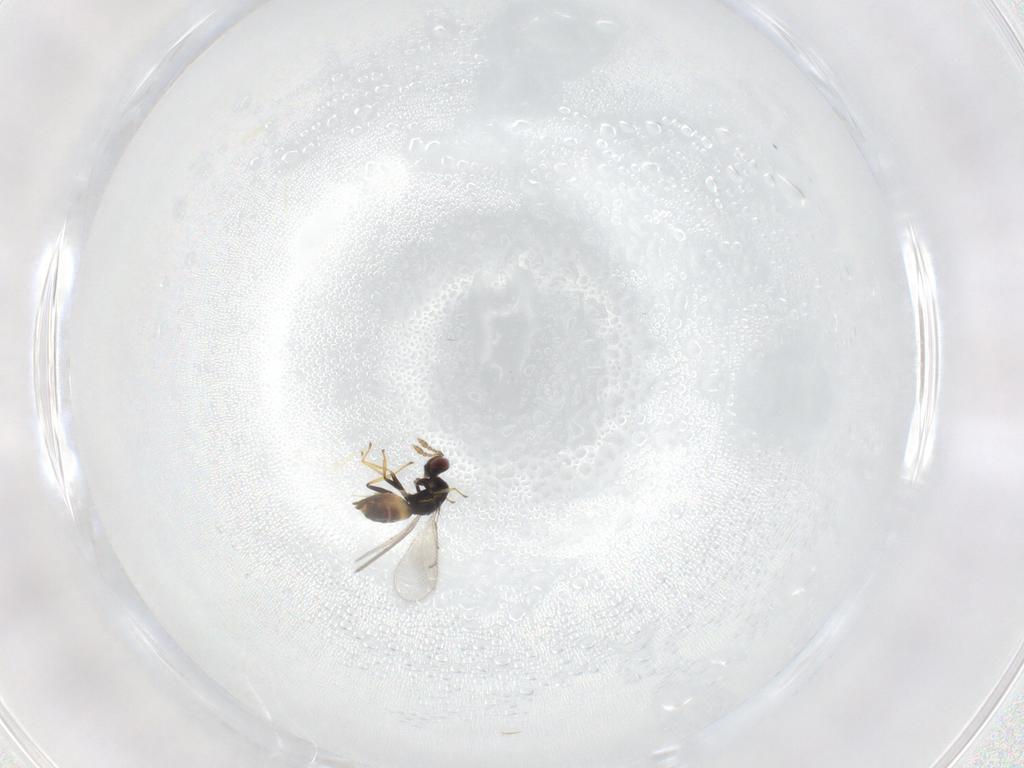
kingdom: Animalia
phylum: Arthropoda
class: Insecta
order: Hymenoptera
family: Eulophidae
